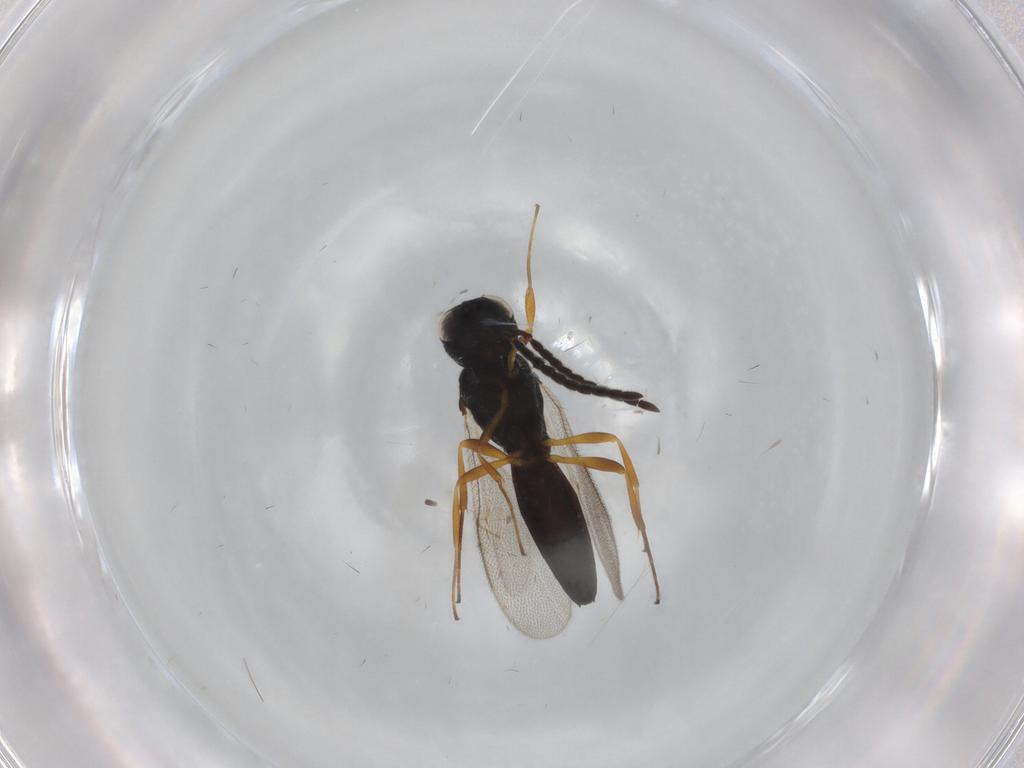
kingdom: Animalia
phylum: Arthropoda
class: Insecta
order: Hymenoptera
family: Scelionidae
